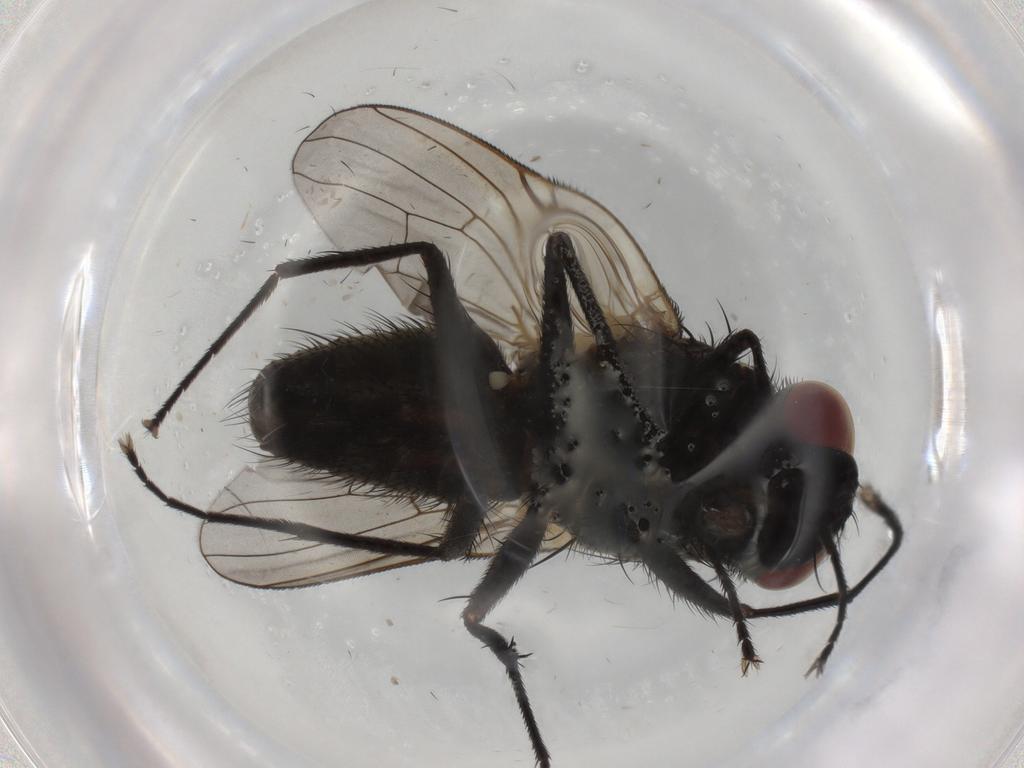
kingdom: Animalia
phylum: Arthropoda
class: Insecta
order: Diptera
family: Muscidae
